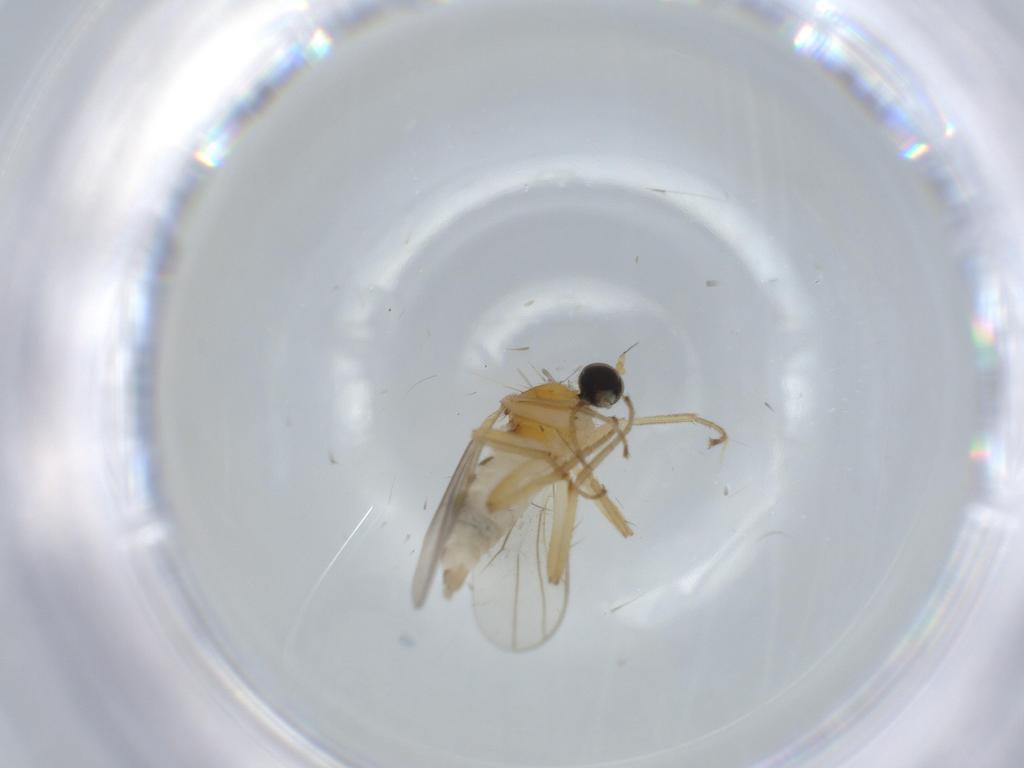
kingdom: Animalia
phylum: Arthropoda
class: Insecta
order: Diptera
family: Hybotidae
